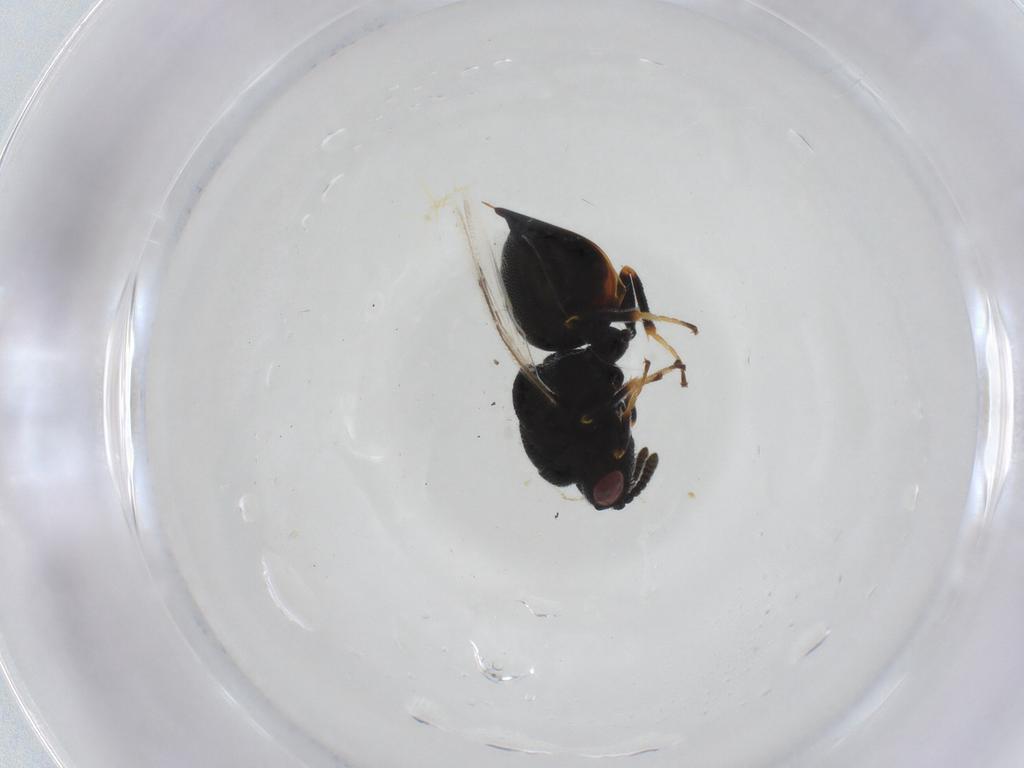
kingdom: Animalia
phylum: Arthropoda
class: Insecta
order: Hymenoptera
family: Eurytomidae
